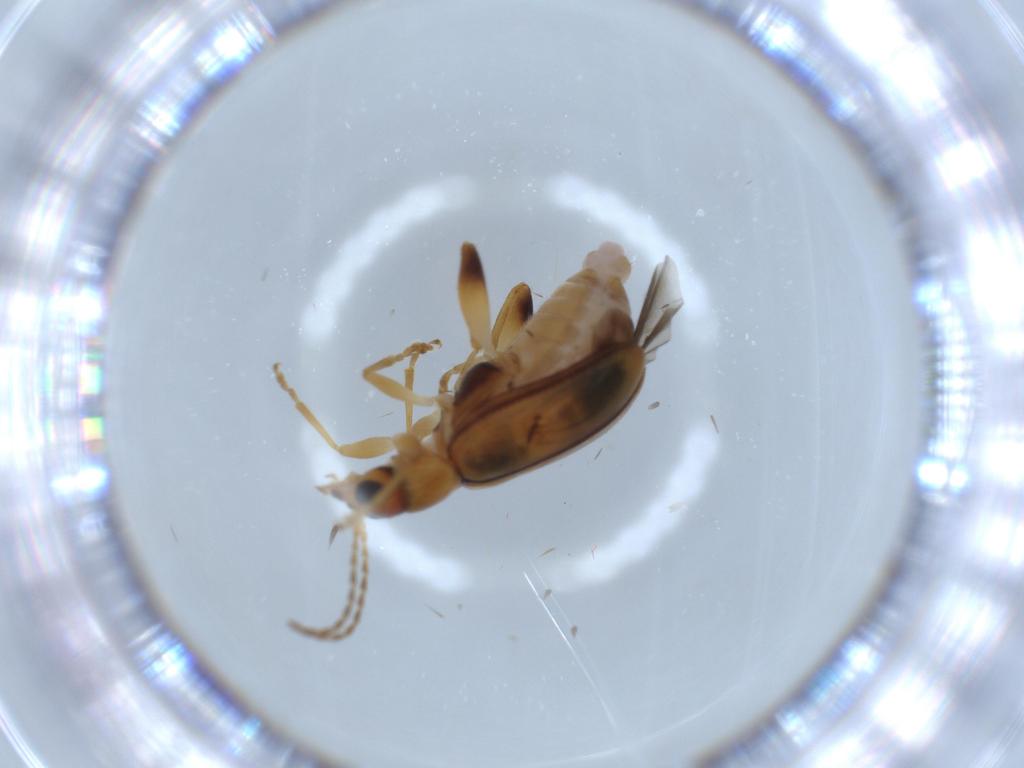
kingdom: Animalia
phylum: Arthropoda
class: Insecta
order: Coleoptera
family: Chrysomelidae
